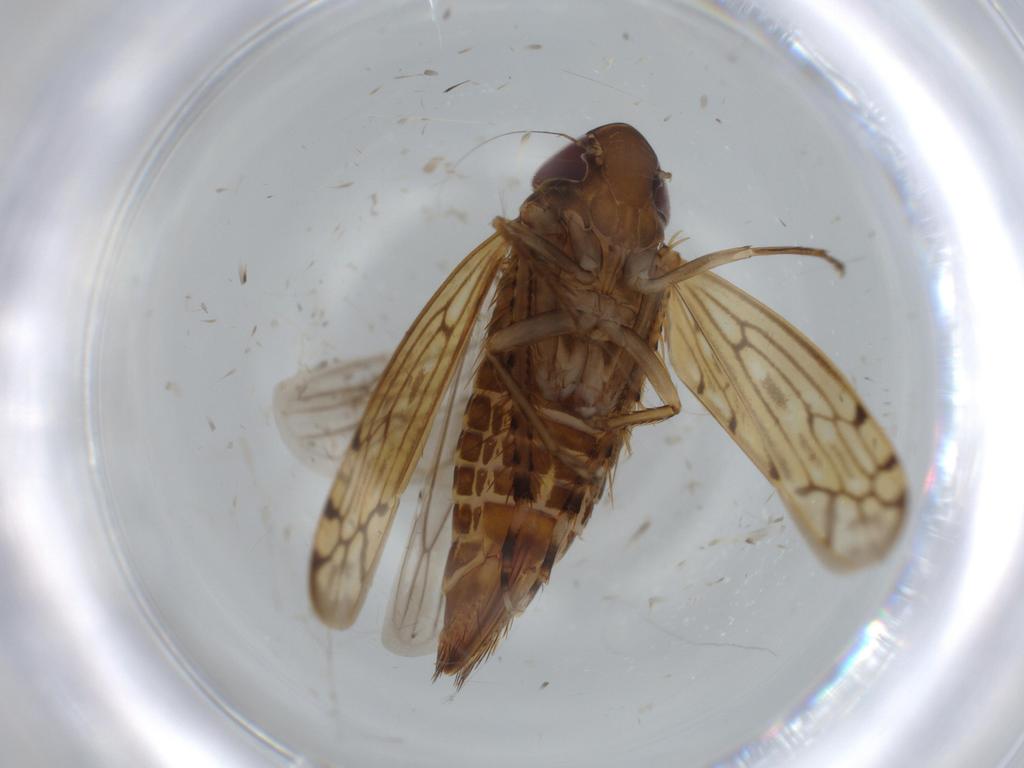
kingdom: Animalia
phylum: Arthropoda
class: Insecta
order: Hemiptera
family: Cicadellidae
